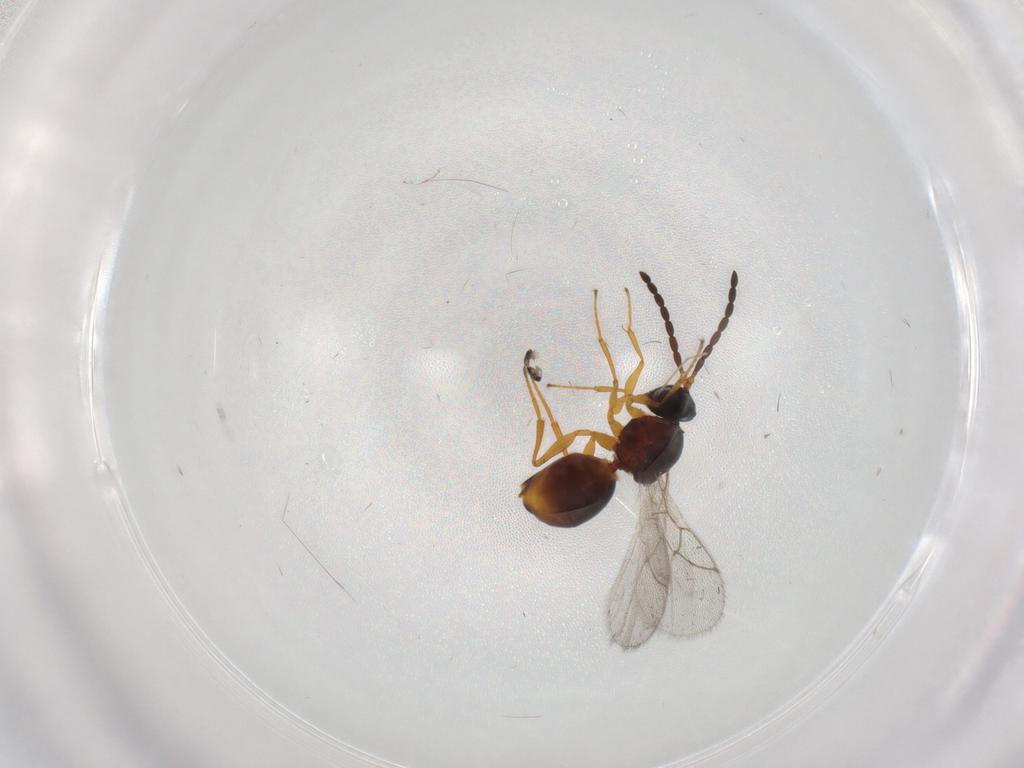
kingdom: Animalia
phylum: Arthropoda
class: Insecta
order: Hymenoptera
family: Figitidae
